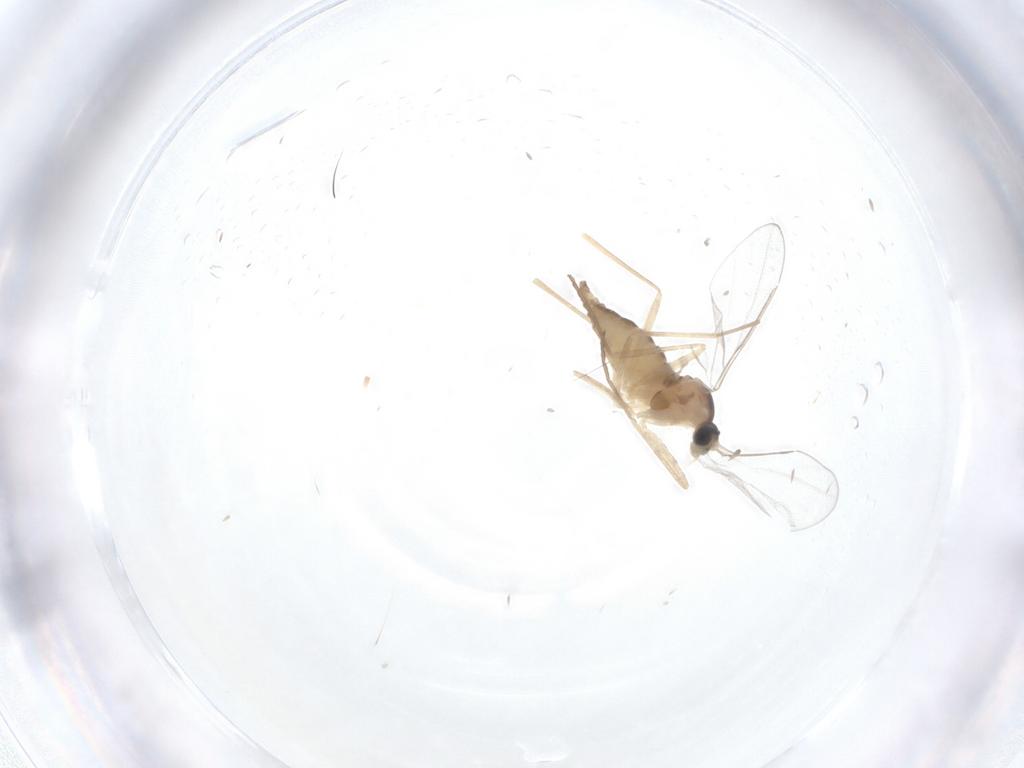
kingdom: Animalia
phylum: Arthropoda
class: Insecta
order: Diptera
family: Cecidomyiidae
